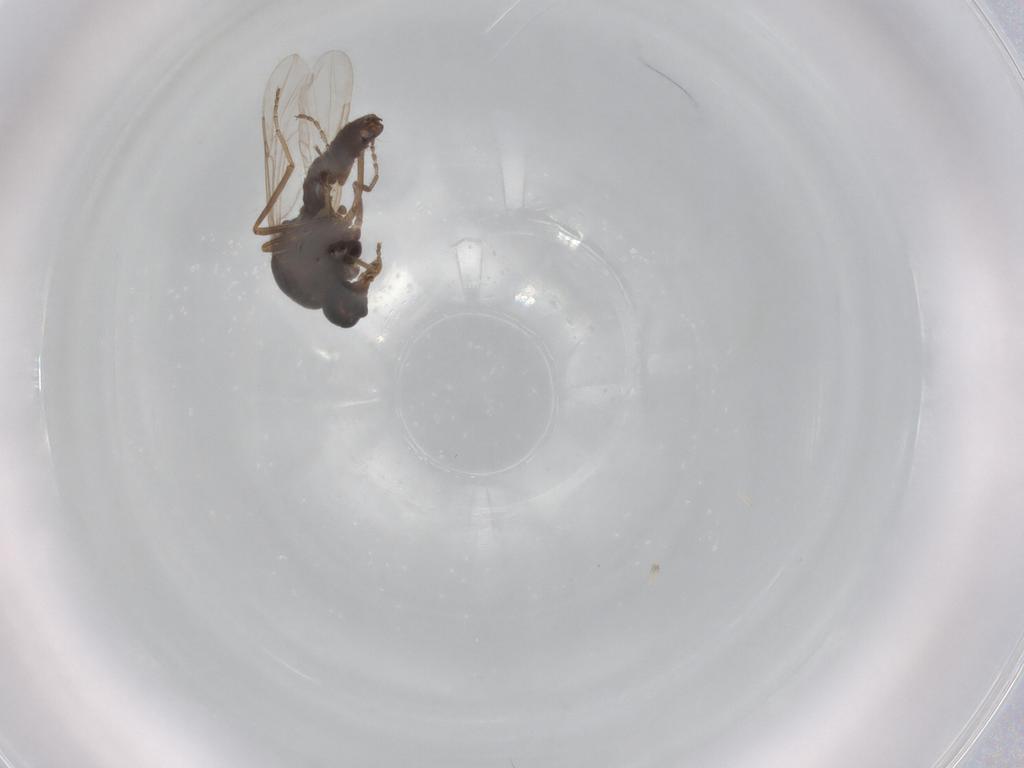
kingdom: Animalia
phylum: Arthropoda
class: Insecta
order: Diptera
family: Ceratopogonidae
